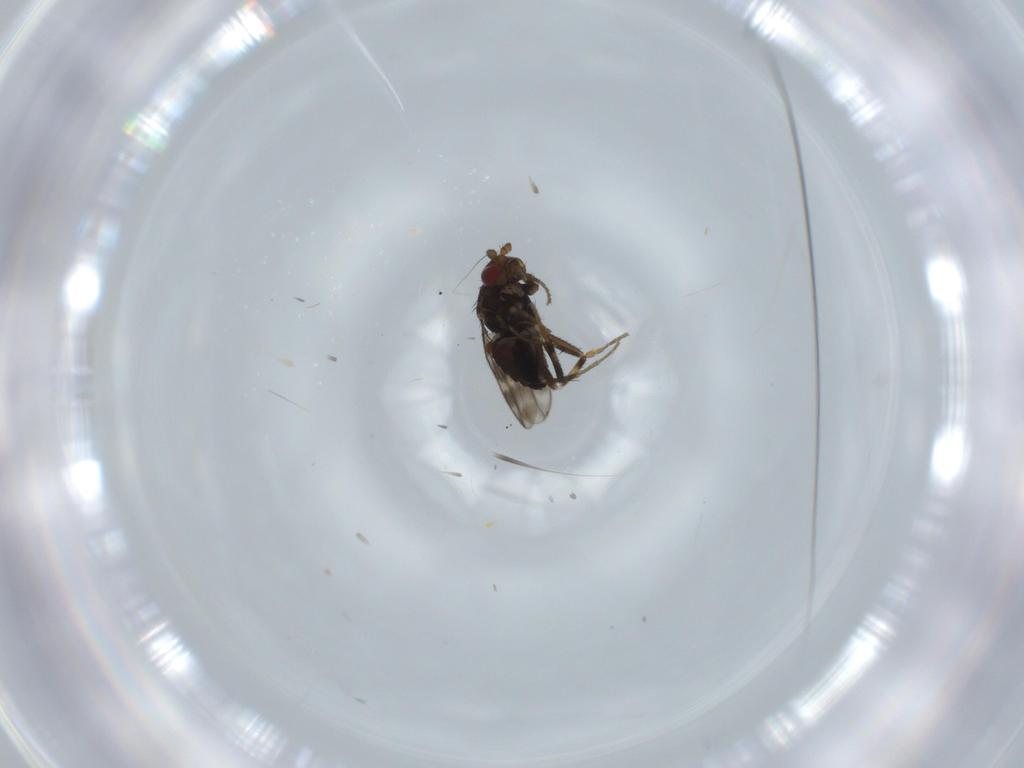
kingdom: Animalia
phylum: Arthropoda
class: Insecta
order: Diptera
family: Sphaeroceridae
